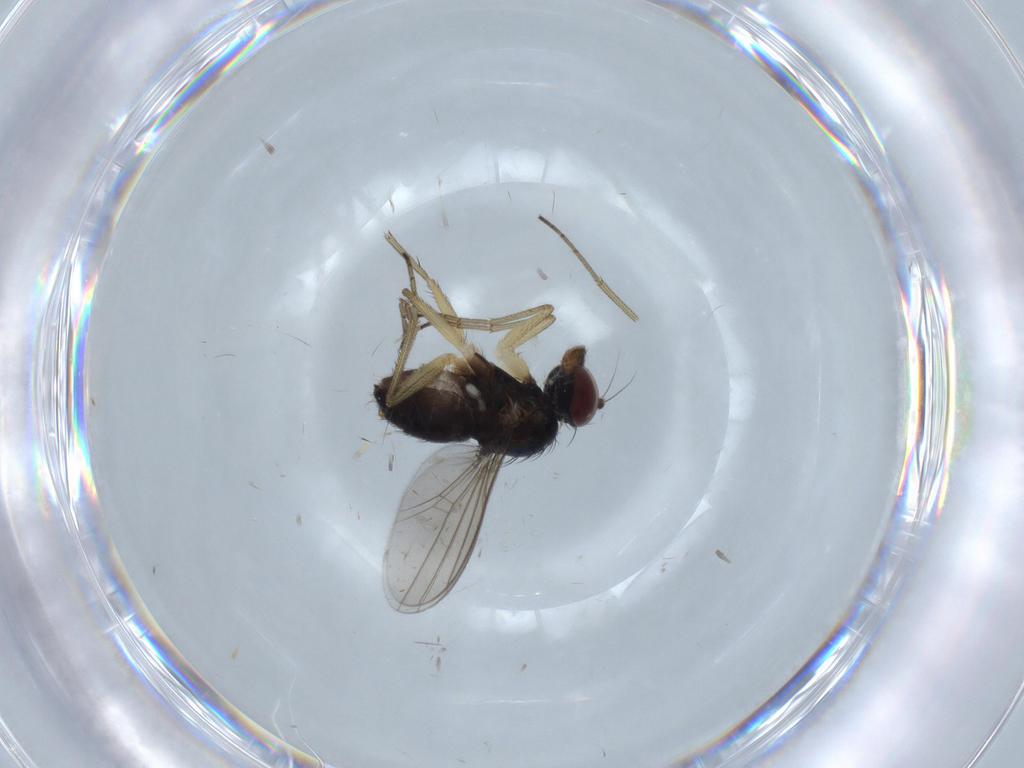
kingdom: Animalia
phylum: Arthropoda
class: Insecta
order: Diptera
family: Dolichopodidae
